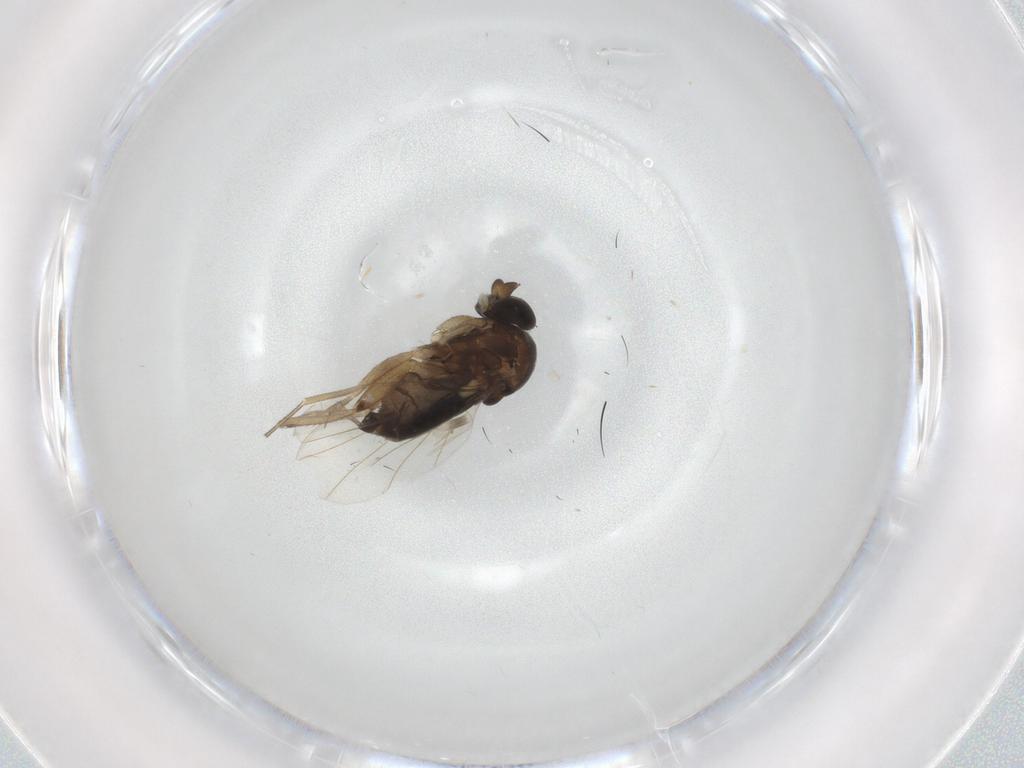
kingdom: Animalia
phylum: Arthropoda
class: Insecta
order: Diptera
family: Phoridae
